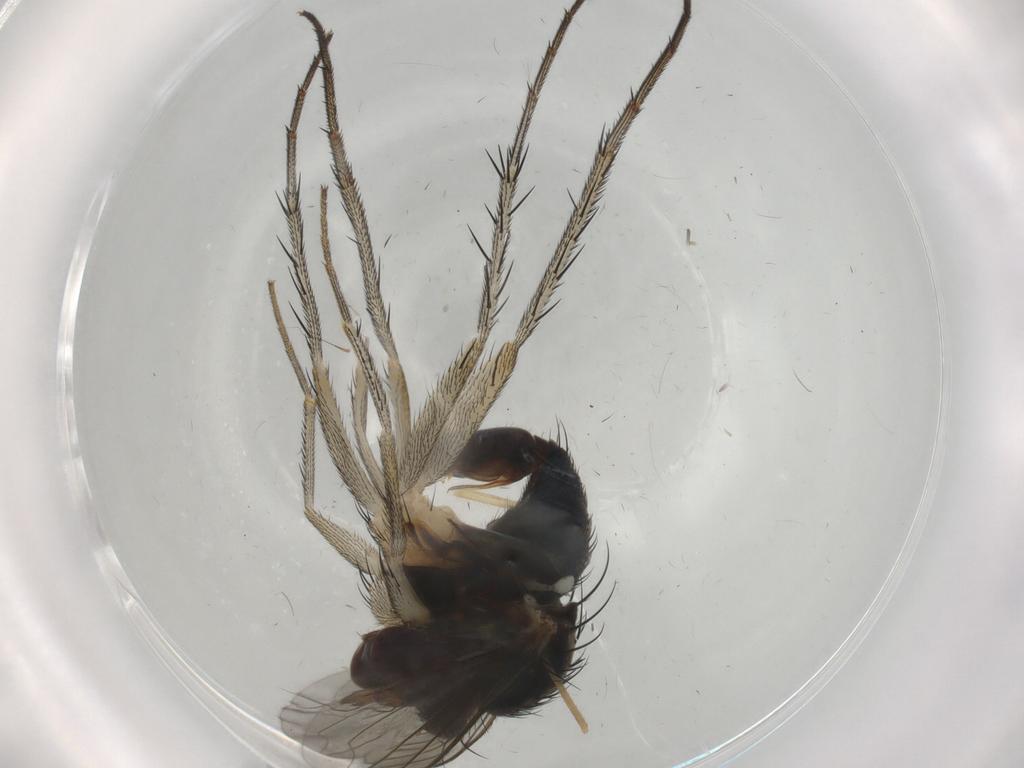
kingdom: Animalia
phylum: Arthropoda
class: Insecta
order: Diptera
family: Dolichopodidae
